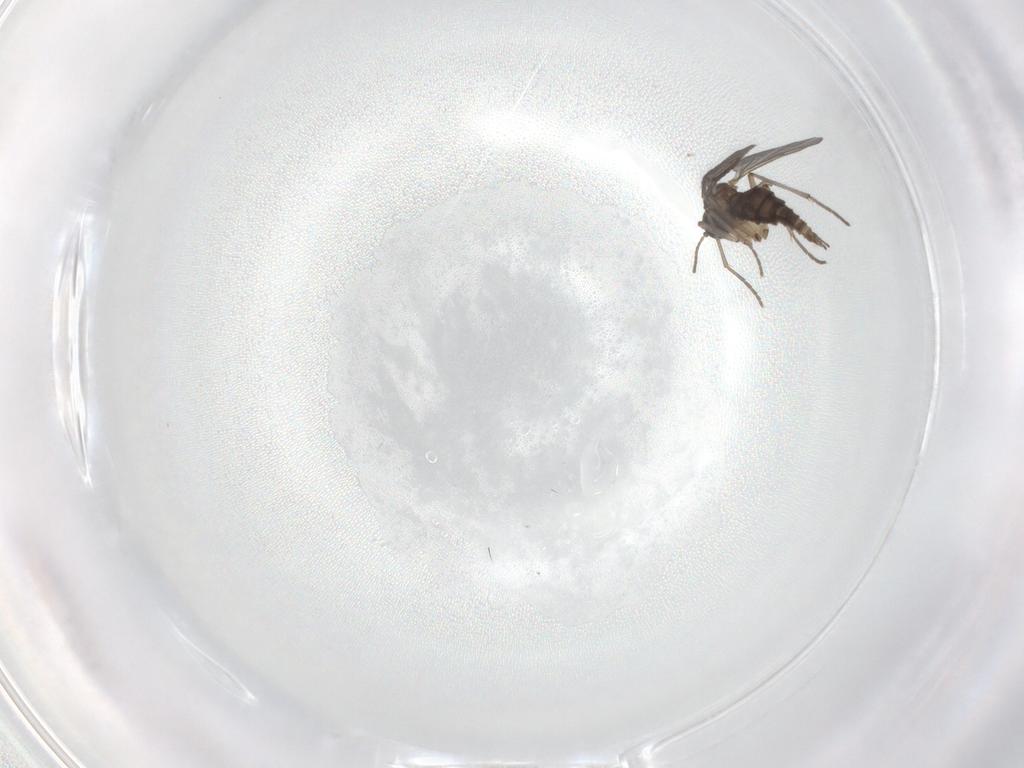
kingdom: Animalia
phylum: Arthropoda
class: Insecta
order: Diptera
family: Sciaridae
